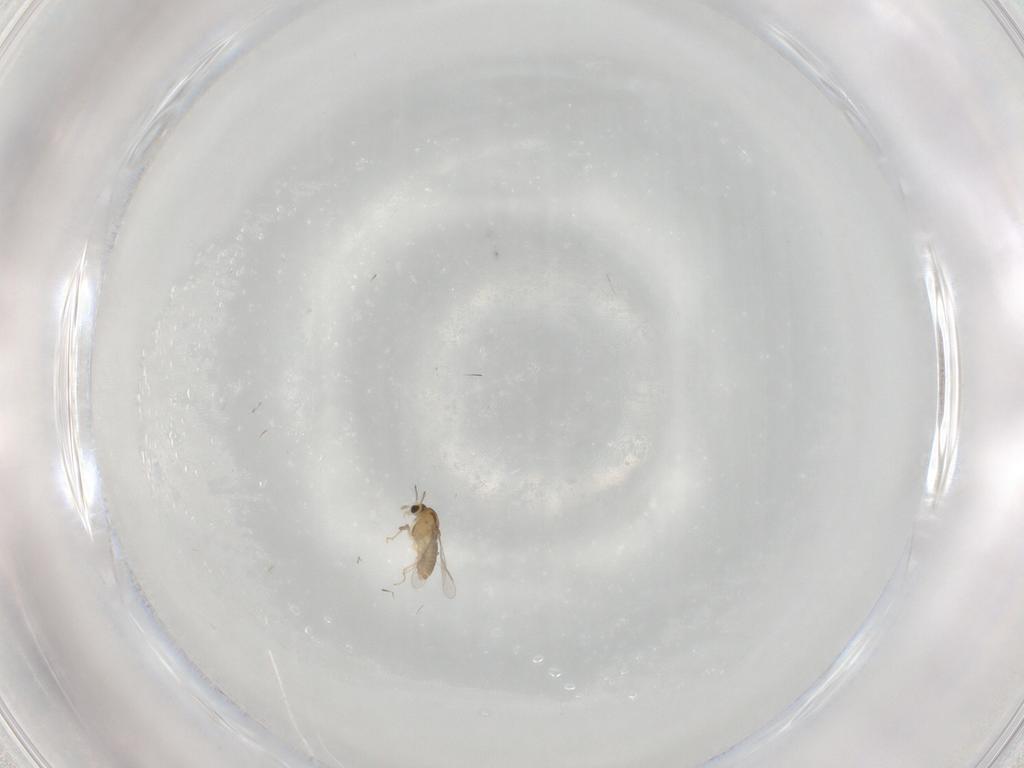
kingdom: Animalia
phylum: Arthropoda
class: Insecta
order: Diptera
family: Chironomidae
